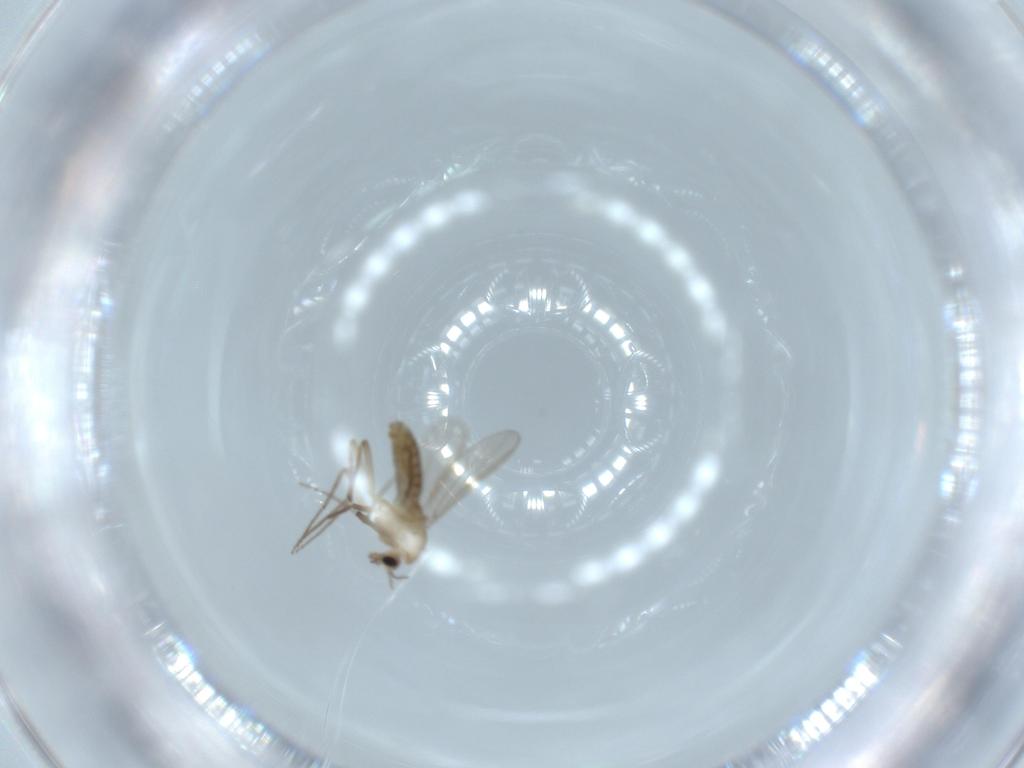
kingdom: Animalia
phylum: Arthropoda
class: Insecta
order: Diptera
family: Chironomidae
